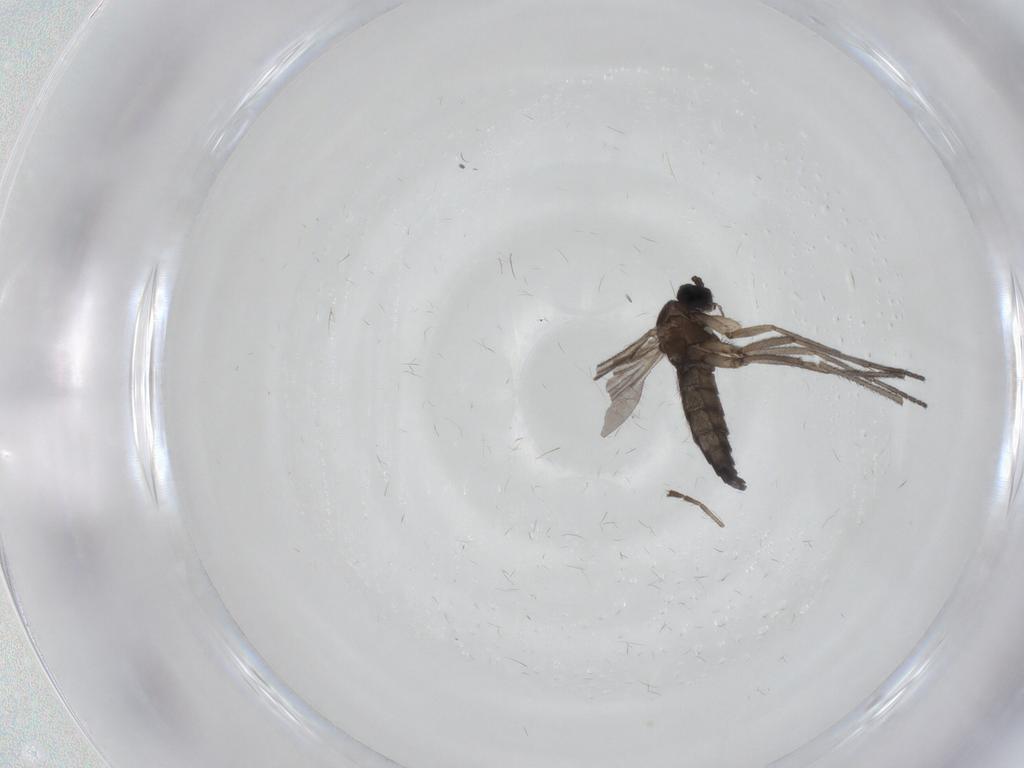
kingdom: Animalia
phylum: Arthropoda
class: Insecta
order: Diptera
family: Sciaridae
